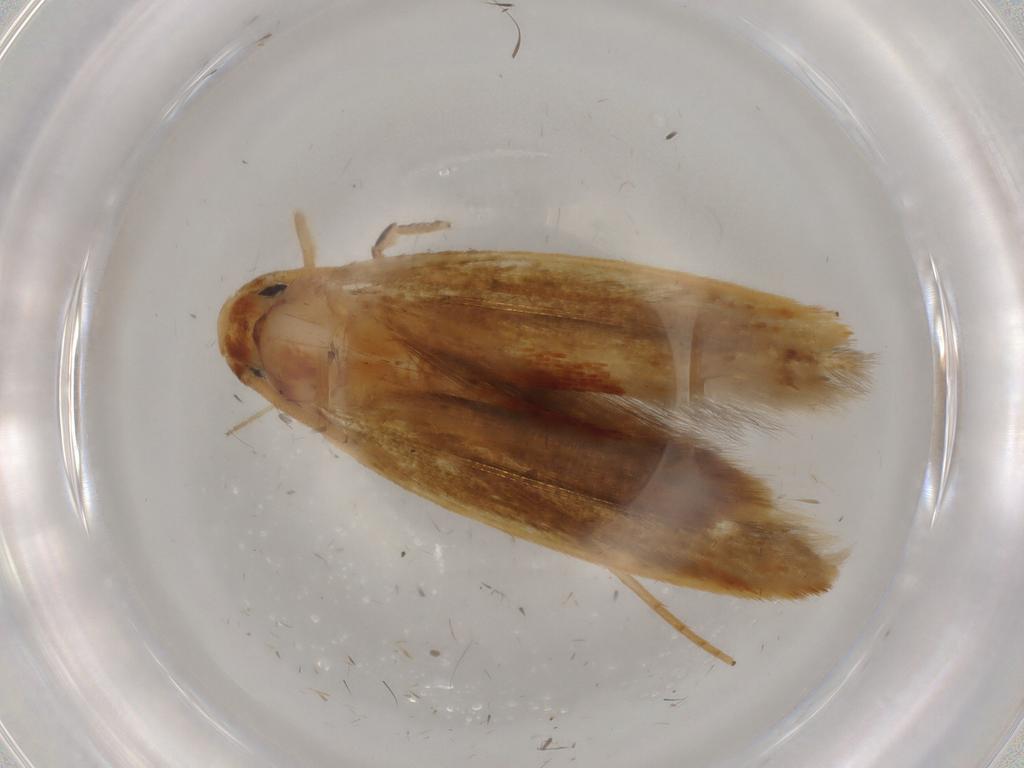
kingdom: Animalia
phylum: Arthropoda
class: Insecta
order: Lepidoptera
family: Tineidae
